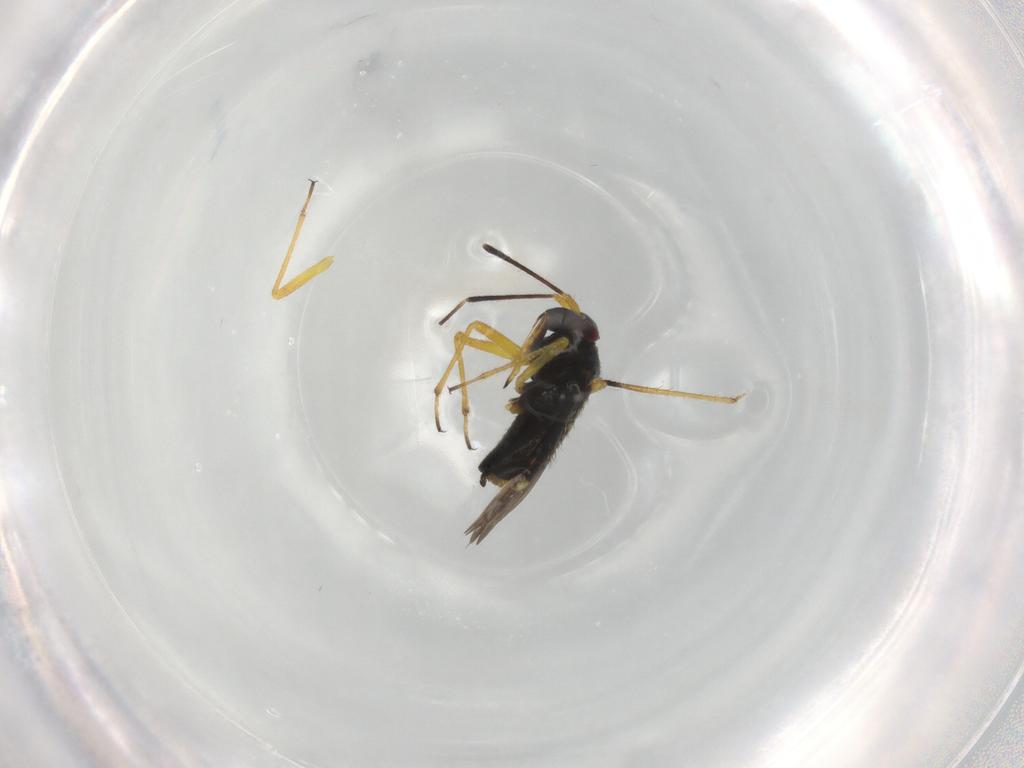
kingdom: Animalia
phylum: Arthropoda
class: Insecta
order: Hemiptera
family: Miridae
